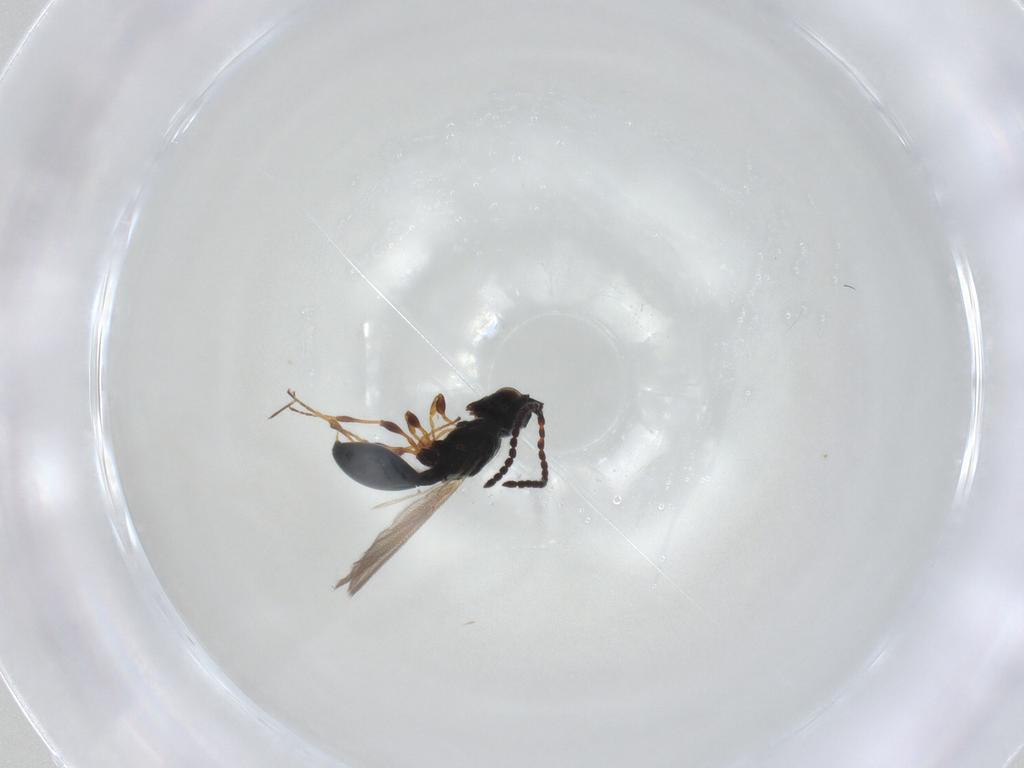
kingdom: Animalia
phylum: Arthropoda
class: Insecta
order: Hymenoptera
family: Diapriidae
